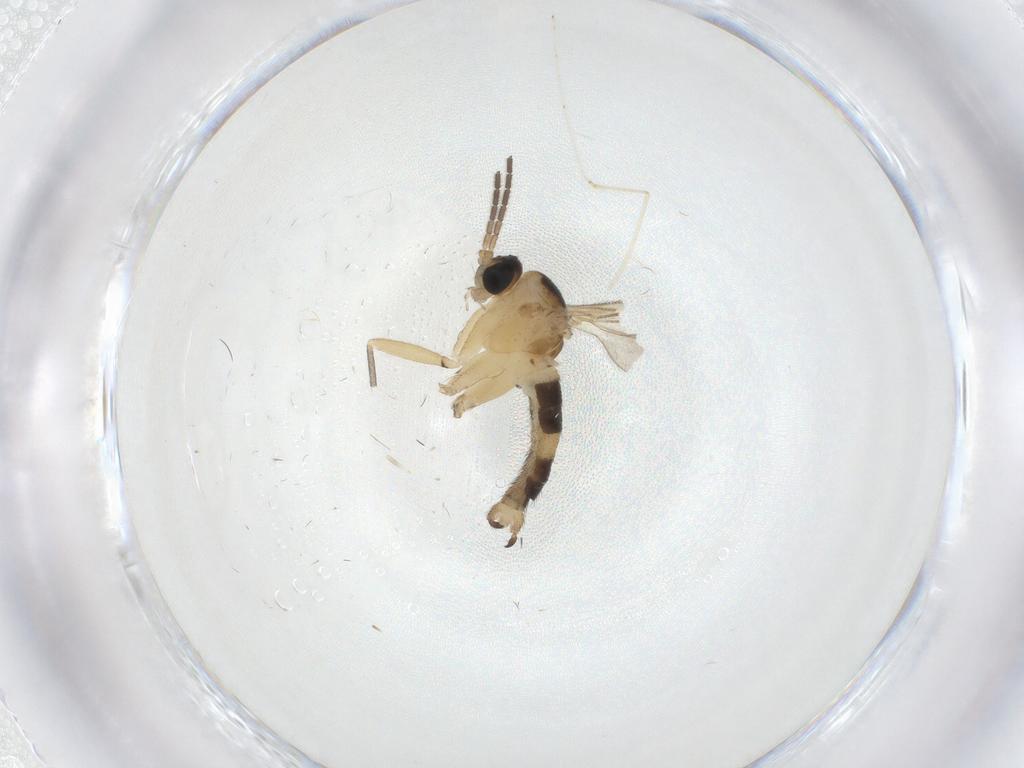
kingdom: Animalia
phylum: Arthropoda
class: Insecta
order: Diptera
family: Sciaridae
